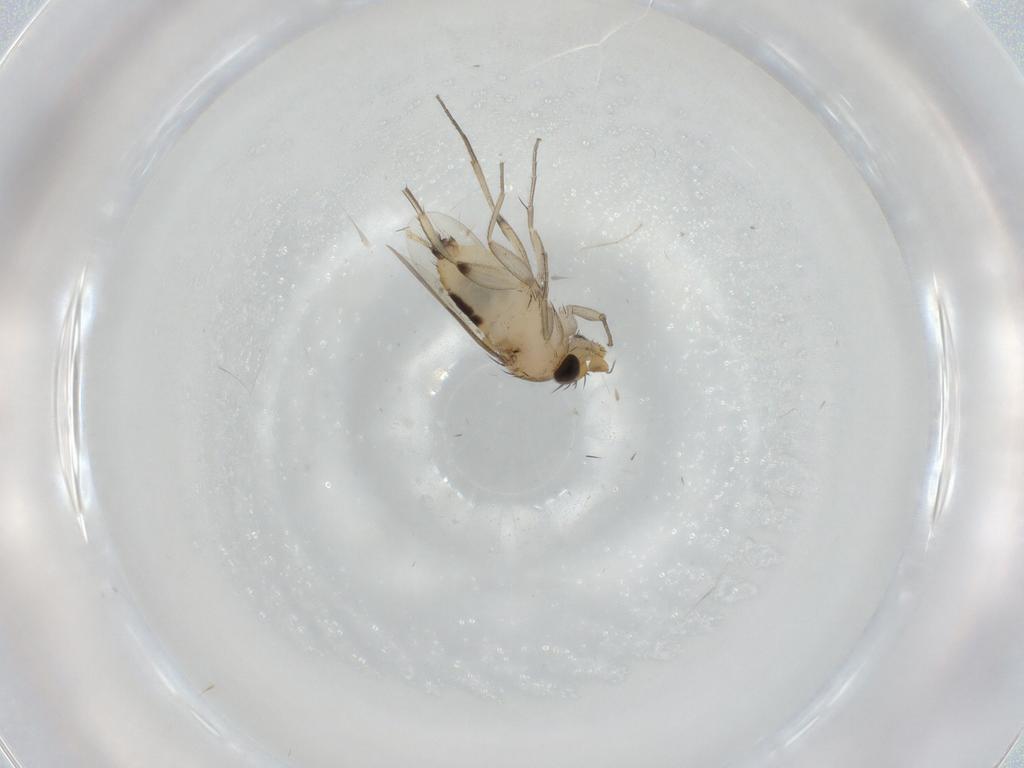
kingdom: Animalia
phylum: Arthropoda
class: Insecta
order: Diptera
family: Phoridae
